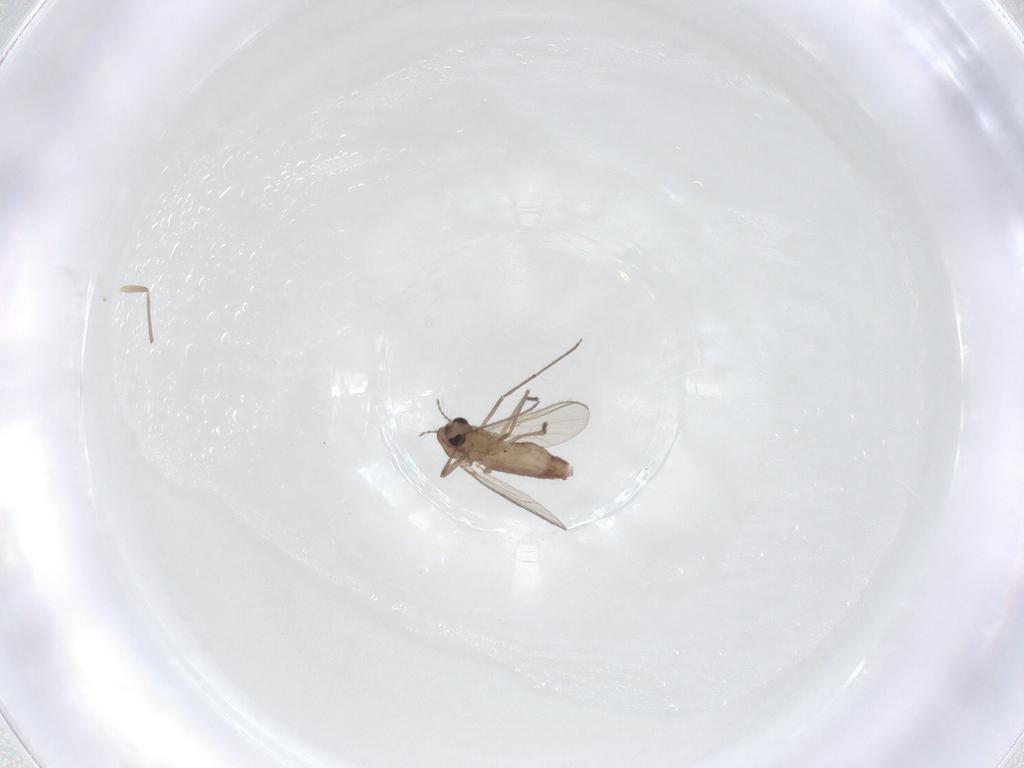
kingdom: Animalia
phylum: Arthropoda
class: Insecta
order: Diptera
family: Chironomidae
